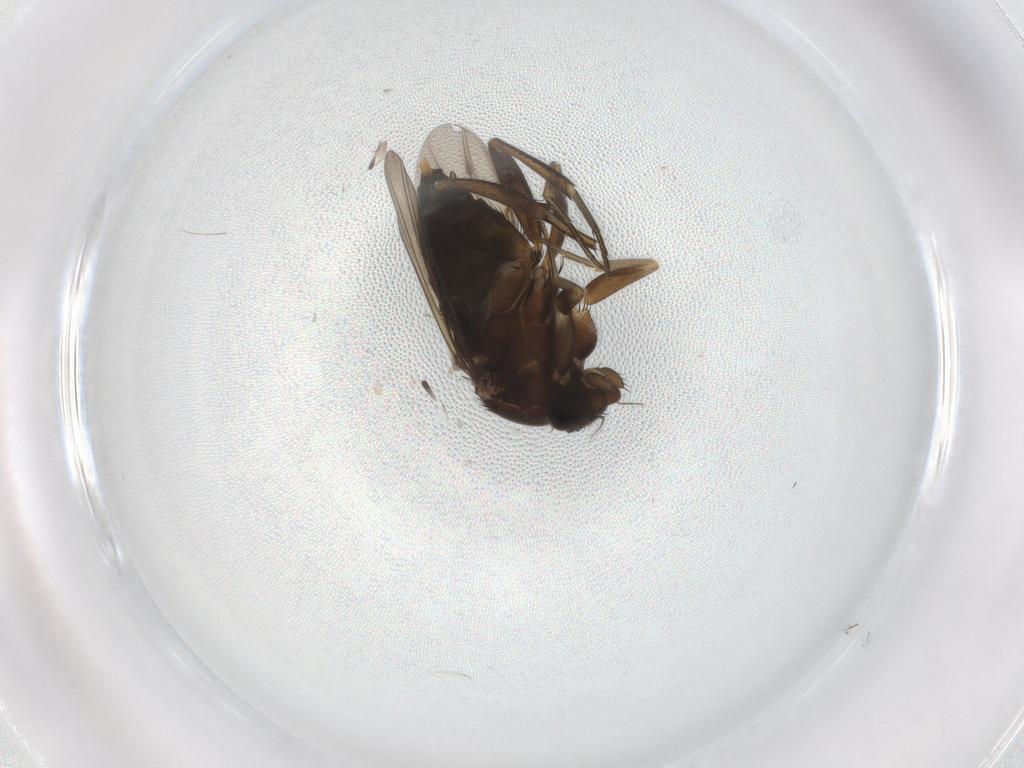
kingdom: Animalia
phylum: Arthropoda
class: Insecta
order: Diptera
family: Phoridae
